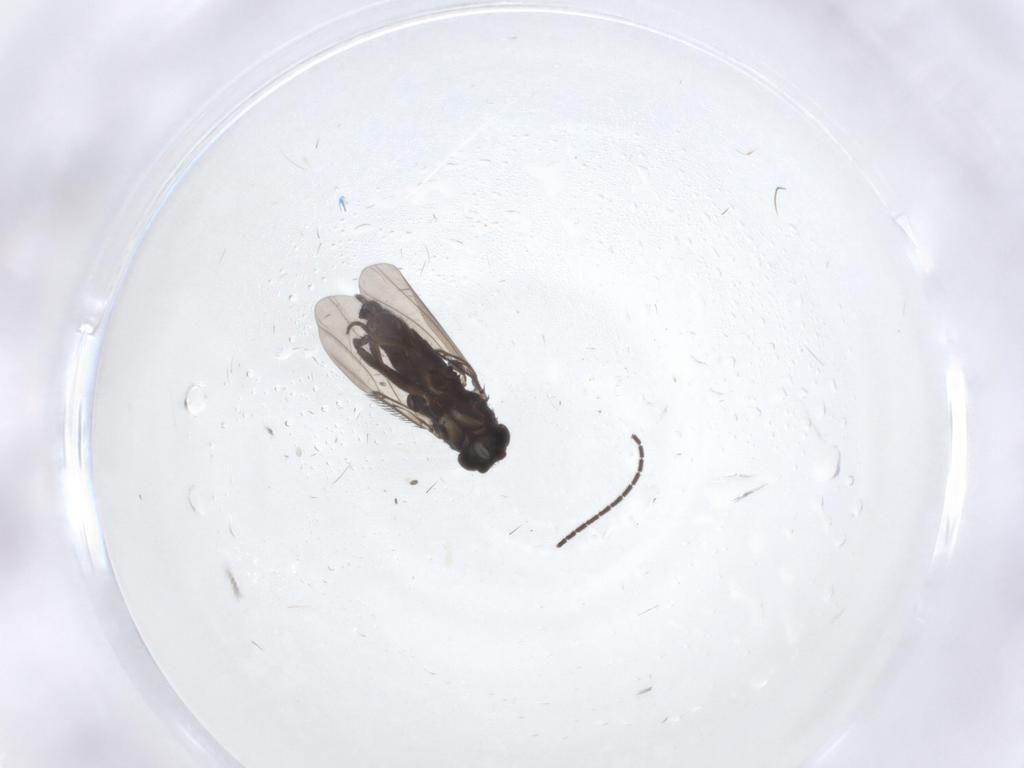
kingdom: Animalia
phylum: Arthropoda
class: Insecta
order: Diptera
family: Phoridae
